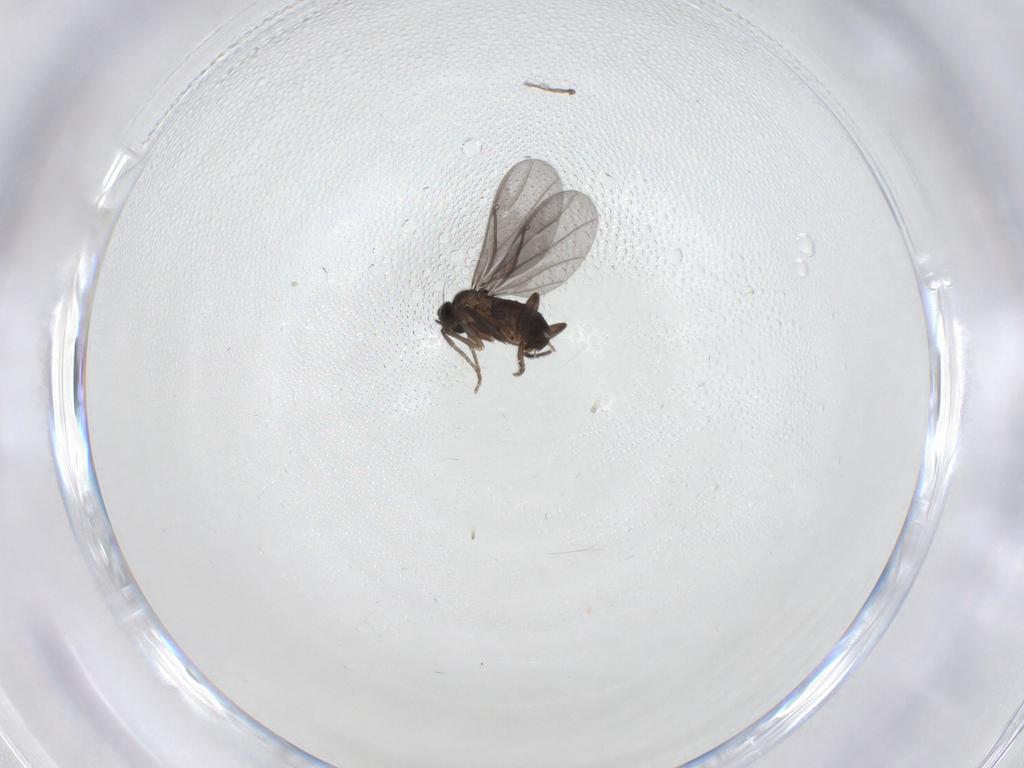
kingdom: Animalia
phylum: Arthropoda
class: Insecta
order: Diptera
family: Phoridae
